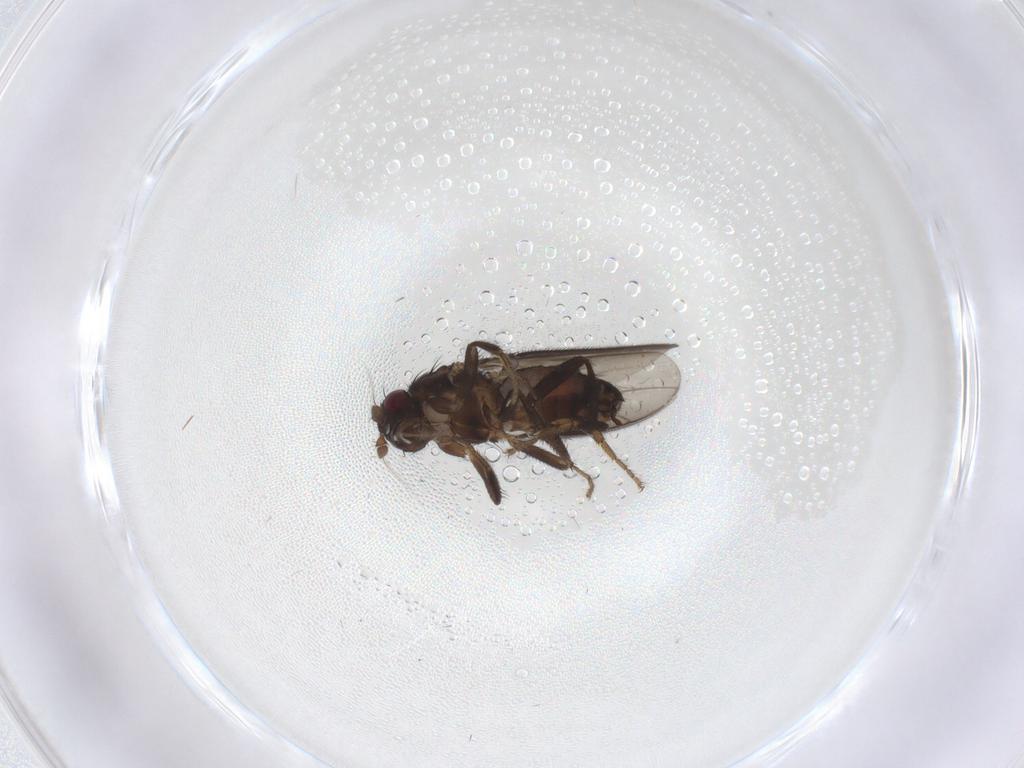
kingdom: Animalia
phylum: Arthropoda
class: Insecta
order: Diptera
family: Sphaeroceridae
